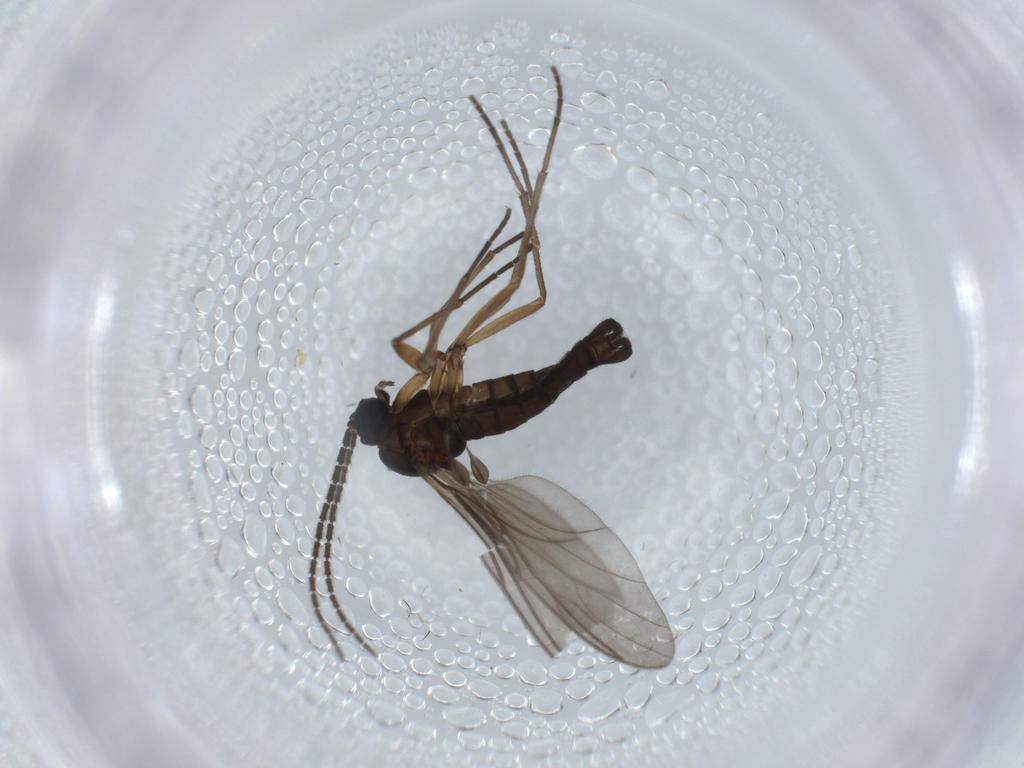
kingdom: Animalia
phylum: Arthropoda
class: Insecta
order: Diptera
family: Sciaridae
